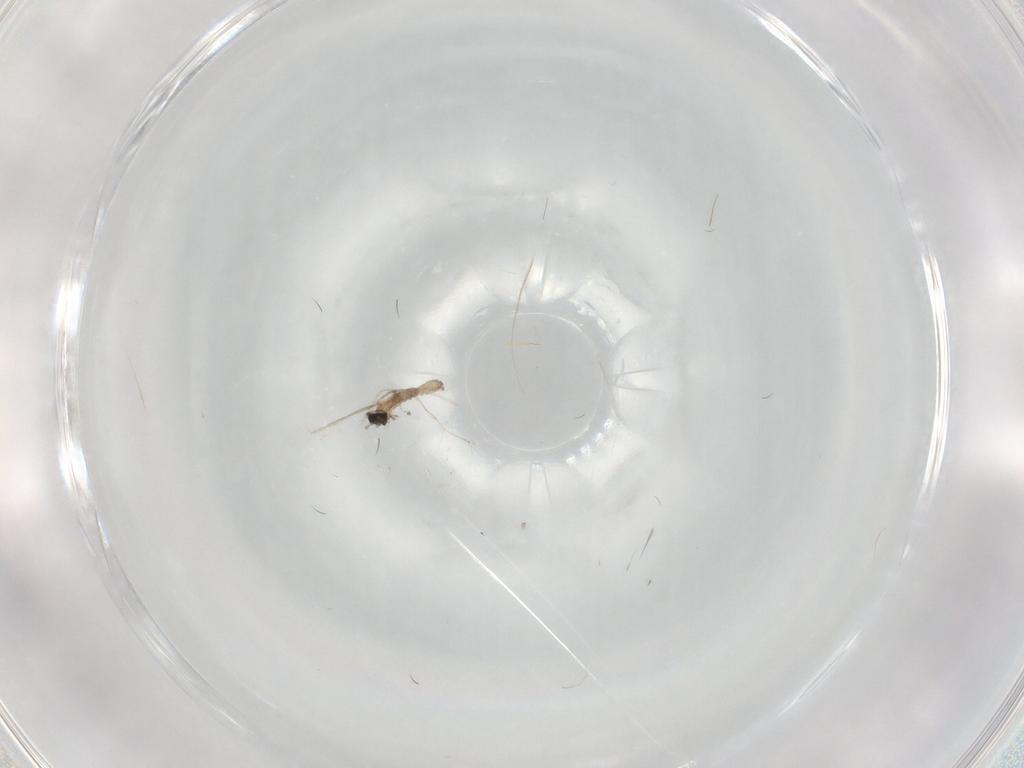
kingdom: Animalia
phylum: Arthropoda
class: Insecta
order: Diptera
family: Cecidomyiidae
